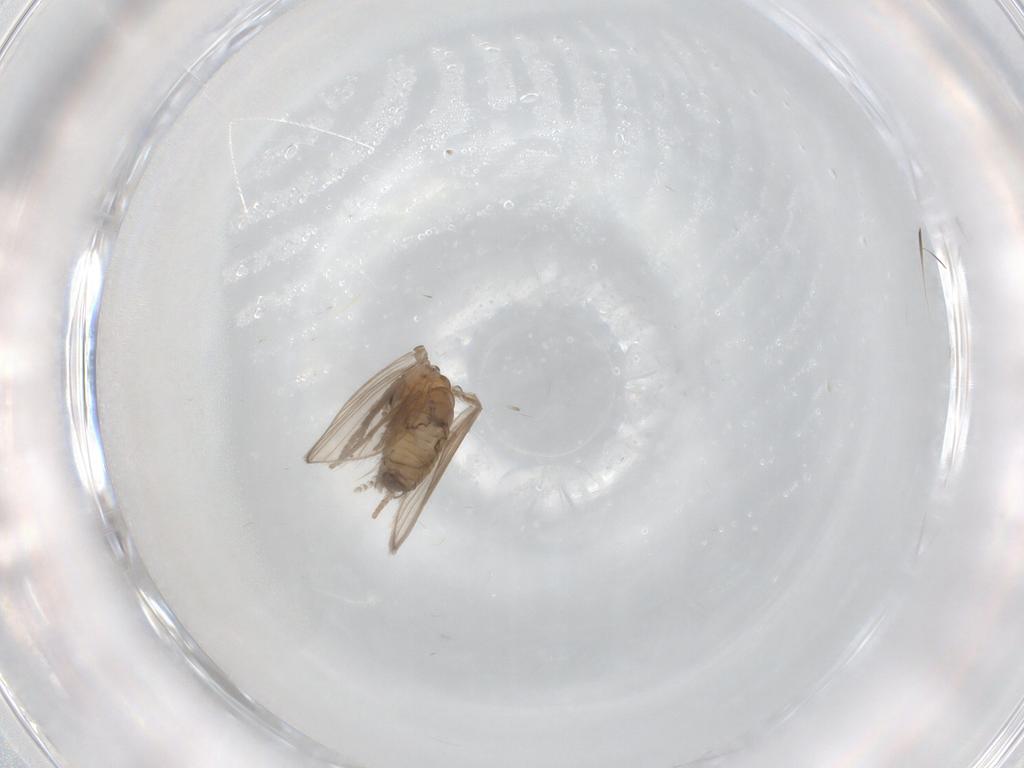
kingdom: Animalia
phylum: Arthropoda
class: Insecta
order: Diptera
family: Psychodidae
